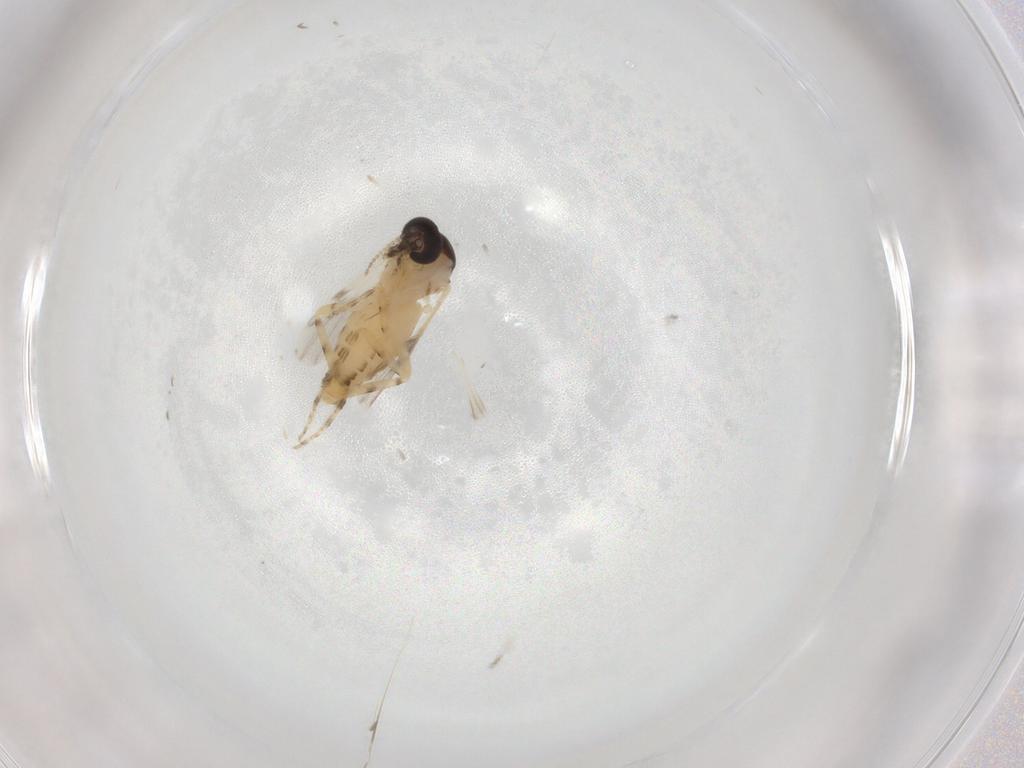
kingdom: Animalia
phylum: Arthropoda
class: Insecta
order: Diptera
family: Ceratopogonidae
